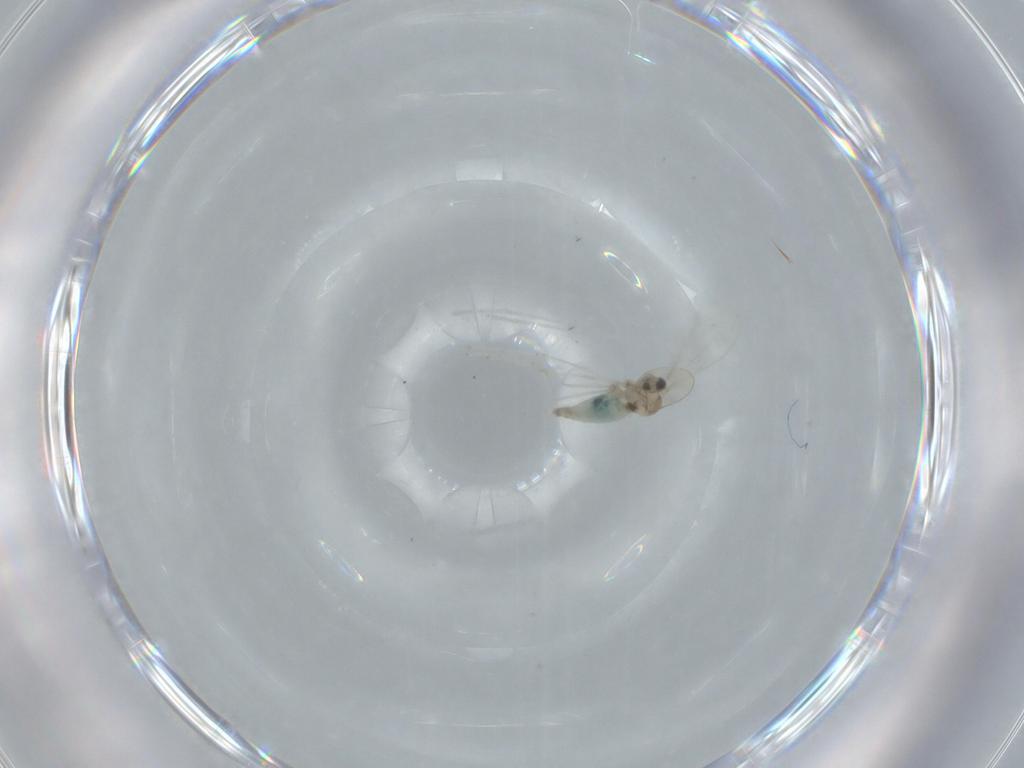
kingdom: Animalia
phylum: Arthropoda
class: Insecta
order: Diptera
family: Cecidomyiidae
